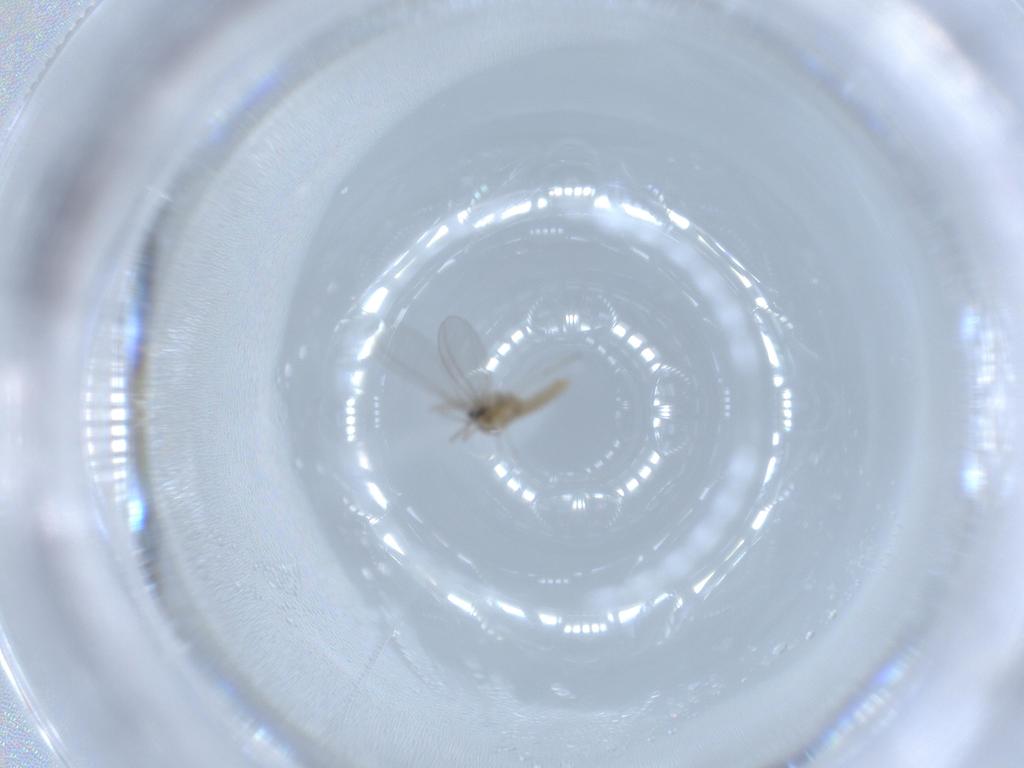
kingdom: Animalia
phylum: Arthropoda
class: Insecta
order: Diptera
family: Cecidomyiidae
